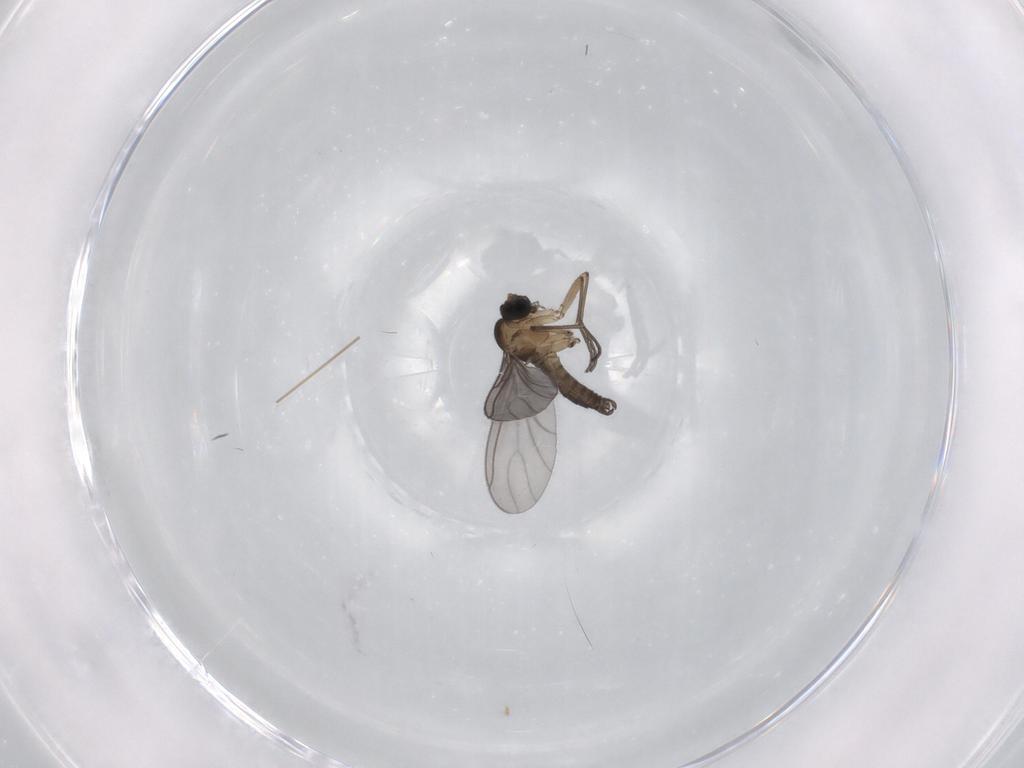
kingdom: Animalia
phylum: Arthropoda
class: Insecta
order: Diptera
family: Sciaridae
